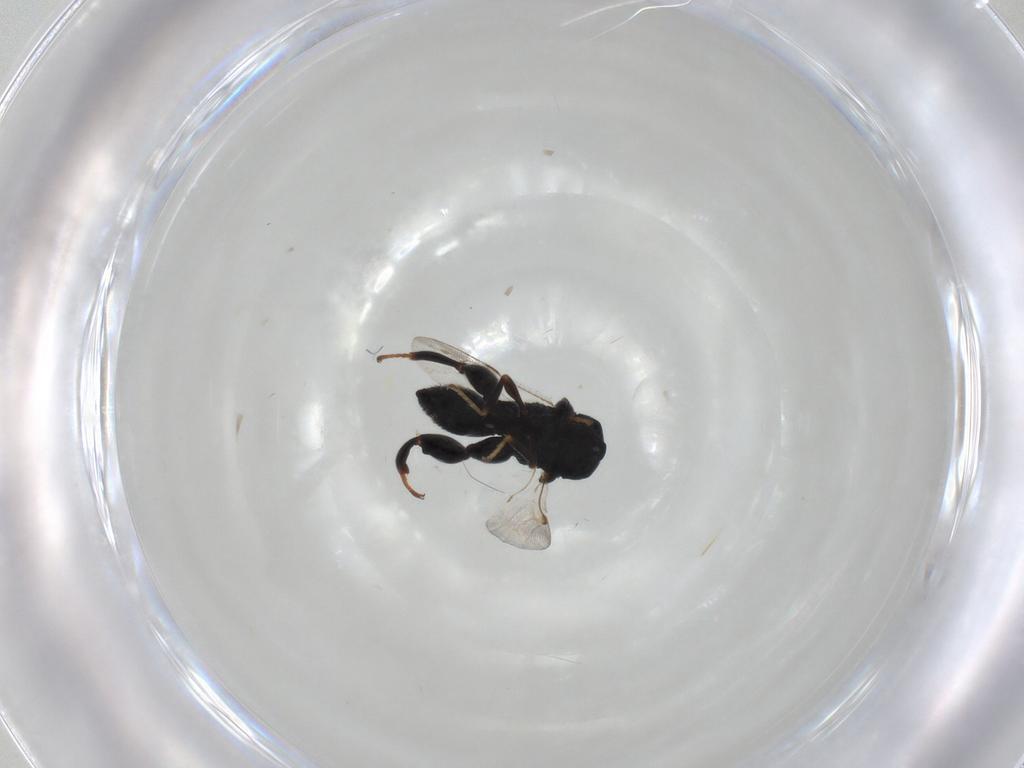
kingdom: Animalia
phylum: Arthropoda
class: Insecta
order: Hymenoptera
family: Chalcididae
